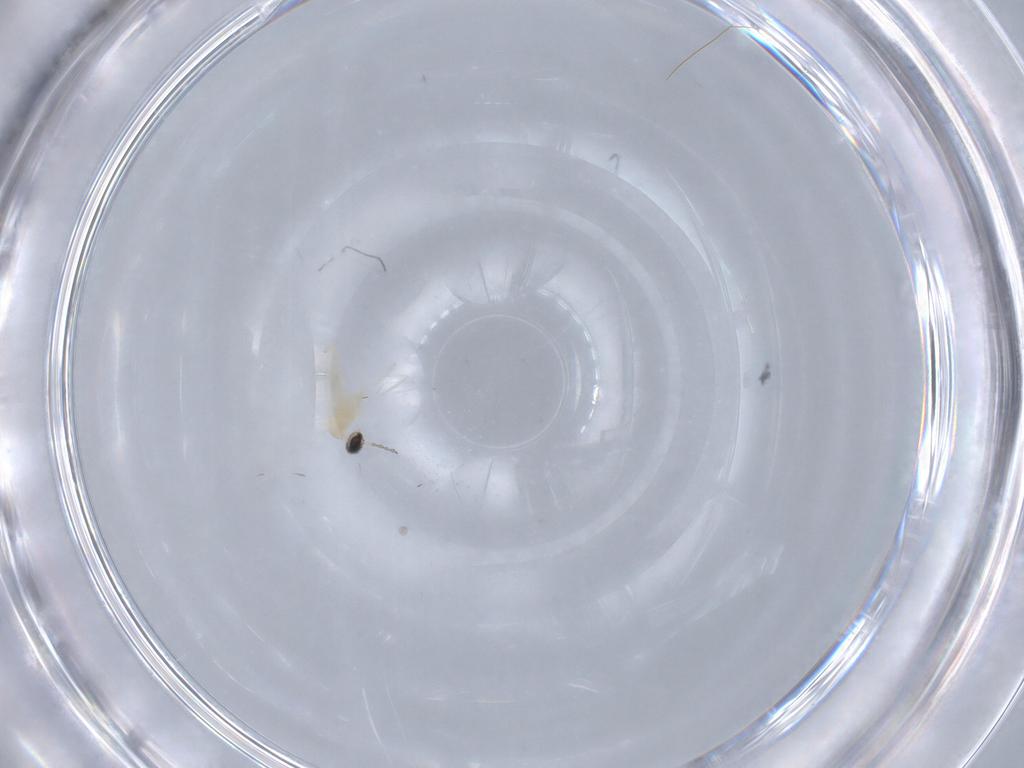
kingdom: Animalia
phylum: Arthropoda
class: Insecta
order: Diptera
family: Cecidomyiidae
